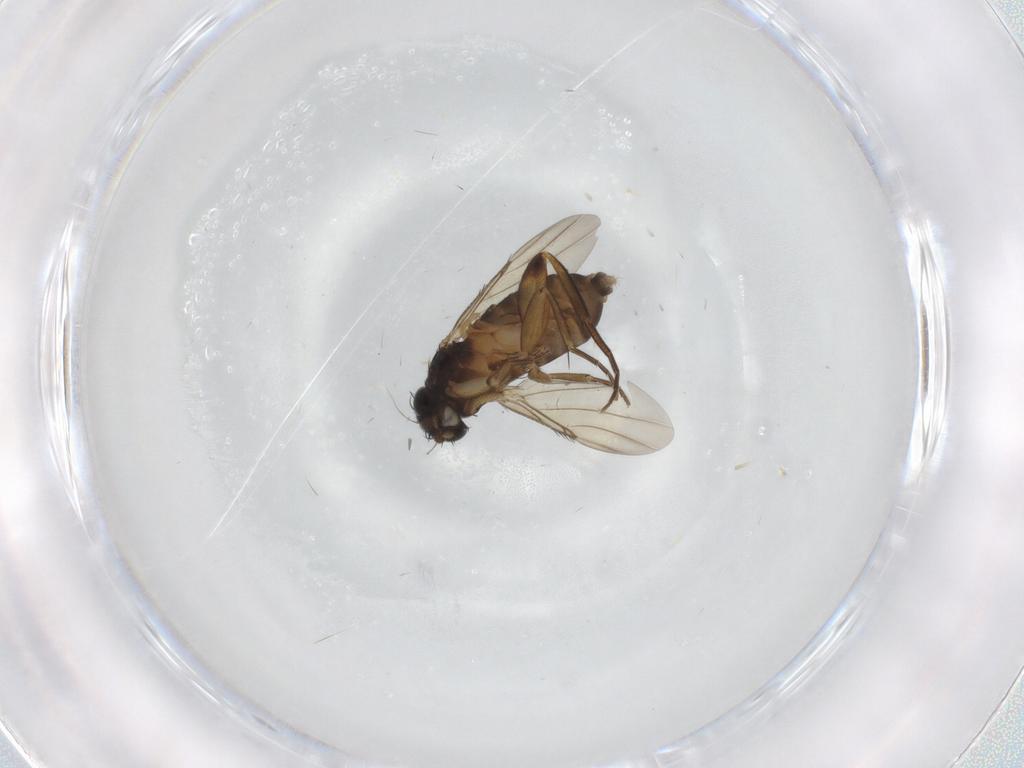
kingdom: Animalia
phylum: Arthropoda
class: Insecta
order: Diptera
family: Phoridae
